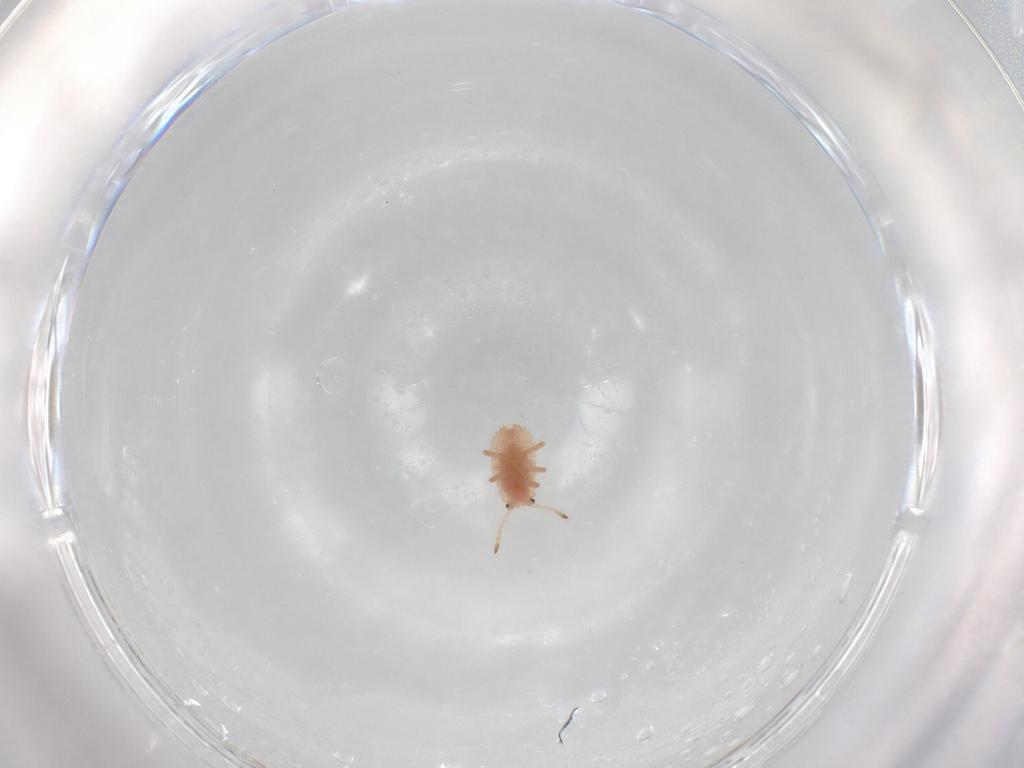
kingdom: Animalia
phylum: Arthropoda
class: Insecta
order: Hemiptera
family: Coccoidea_incertae_sedis
